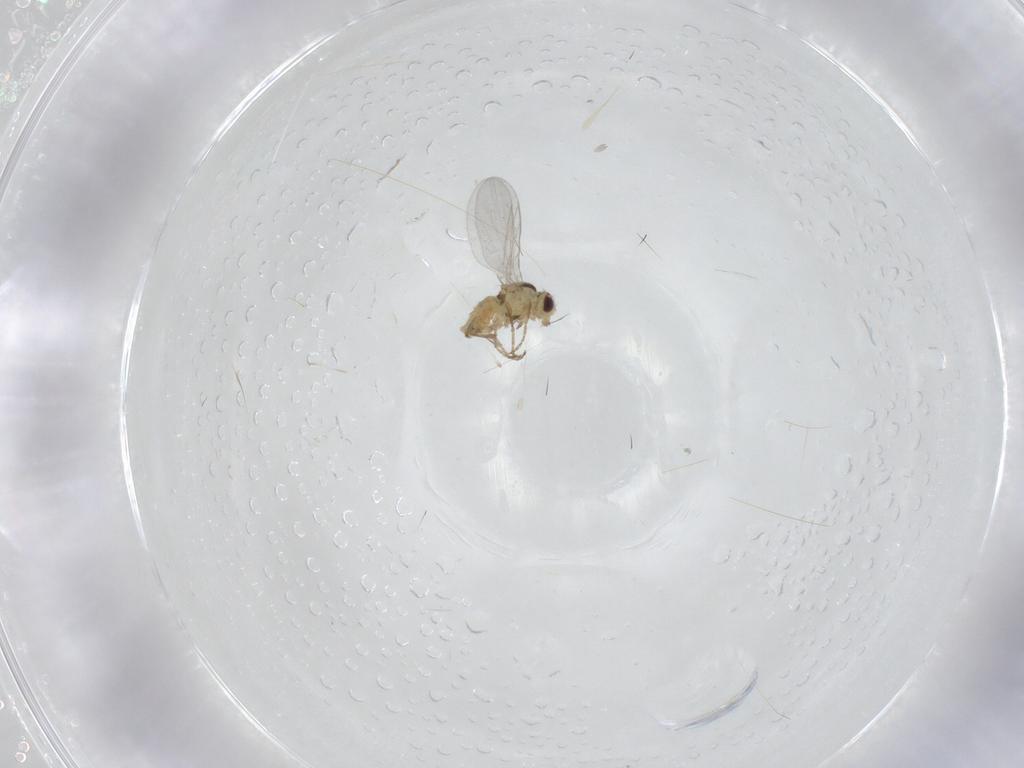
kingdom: Animalia
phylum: Arthropoda
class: Insecta
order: Diptera
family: Agromyzidae
